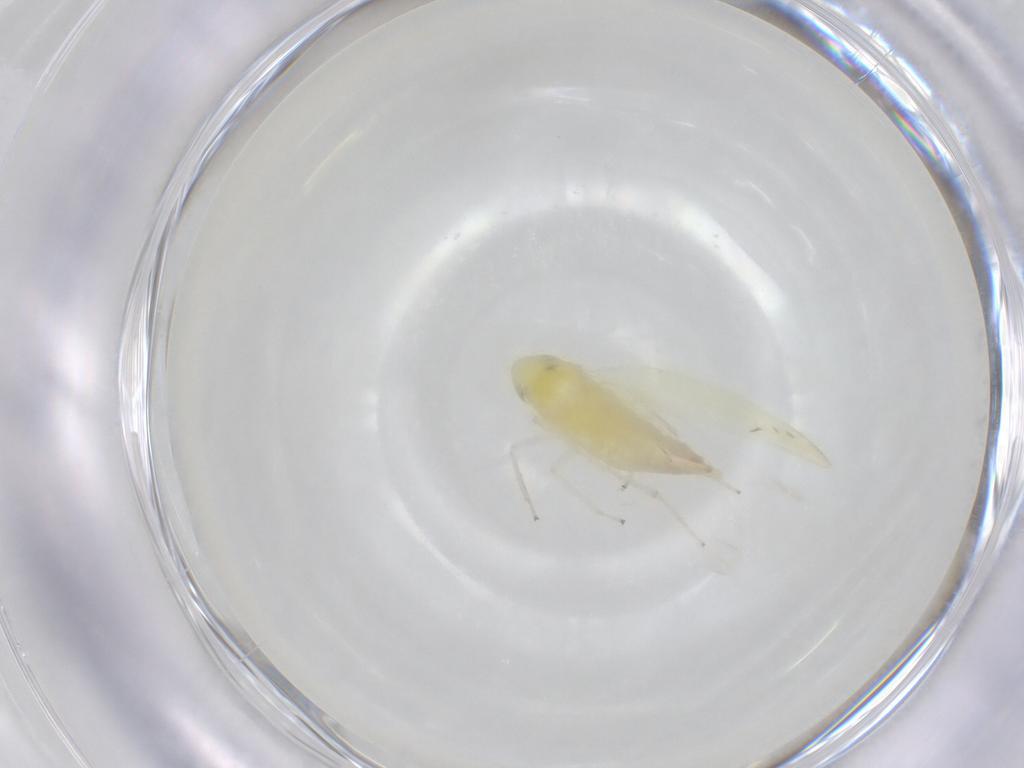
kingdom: Animalia
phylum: Arthropoda
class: Insecta
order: Hemiptera
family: Cicadellidae
